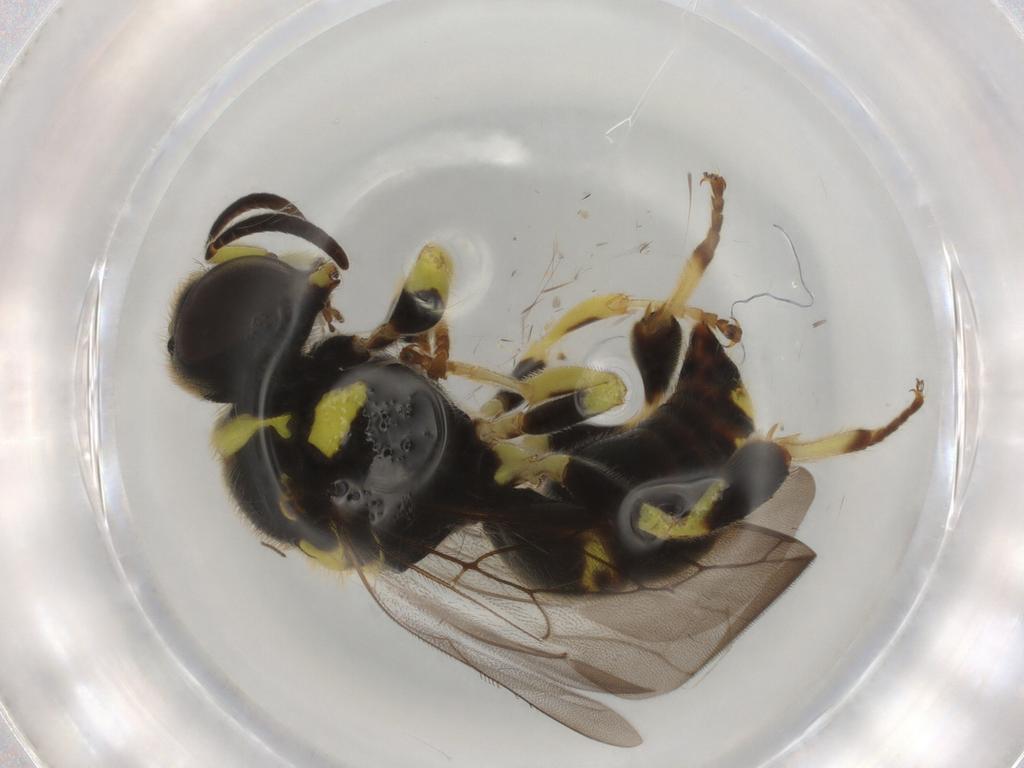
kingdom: Animalia
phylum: Arthropoda
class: Insecta
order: Hymenoptera
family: Crabronidae
